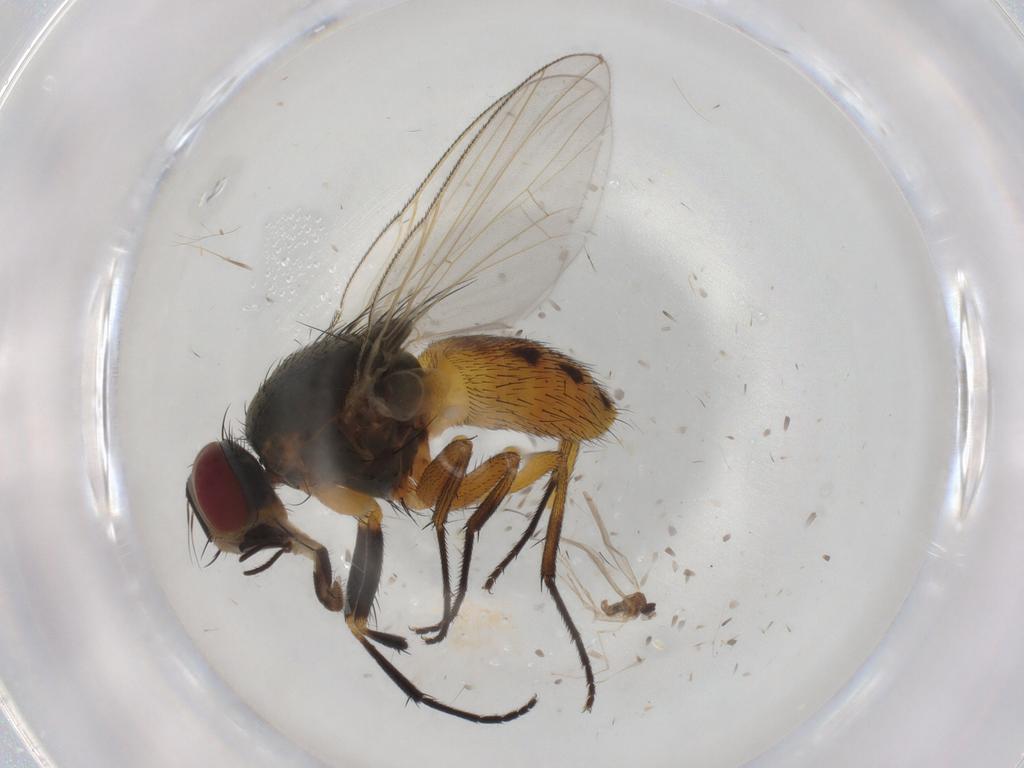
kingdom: Animalia
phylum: Arthropoda
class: Insecta
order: Diptera
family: Muscidae
